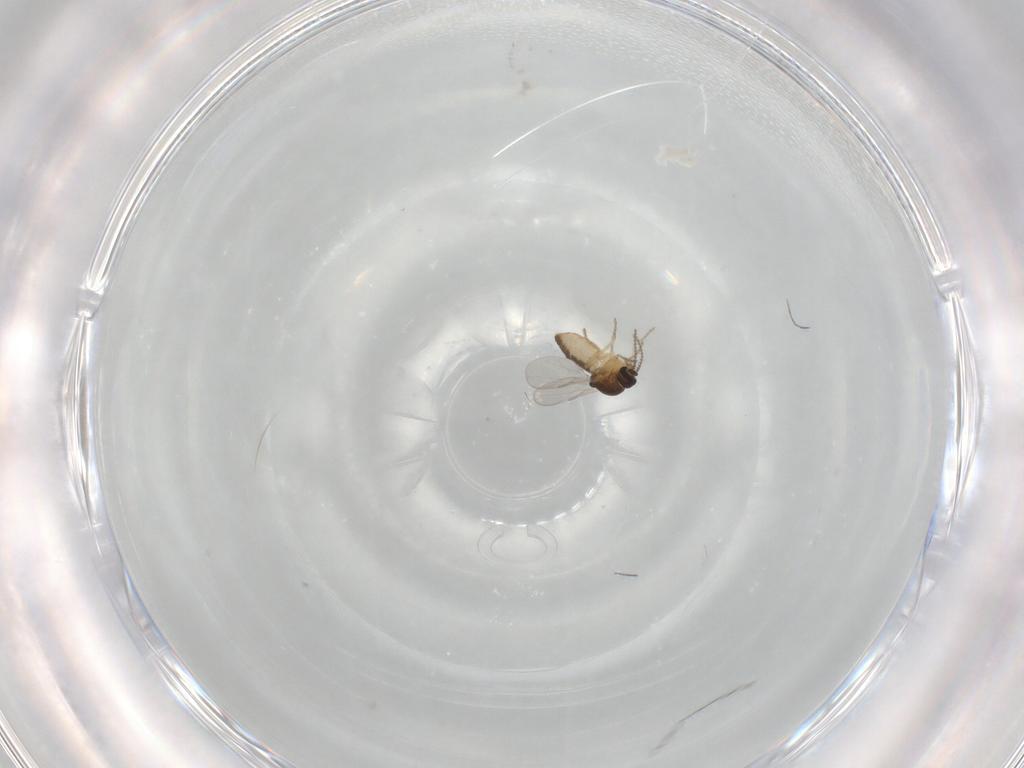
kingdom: Animalia
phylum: Arthropoda
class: Insecta
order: Diptera
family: Ceratopogonidae
